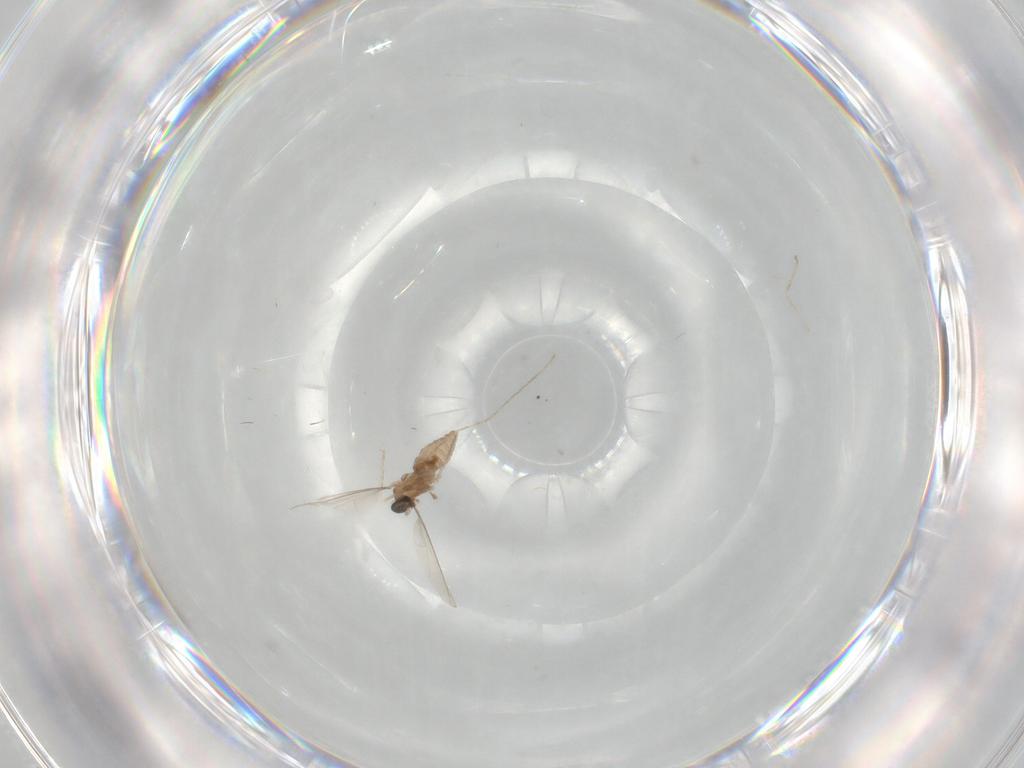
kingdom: Animalia
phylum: Arthropoda
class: Insecta
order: Diptera
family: Cecidomyiidae
